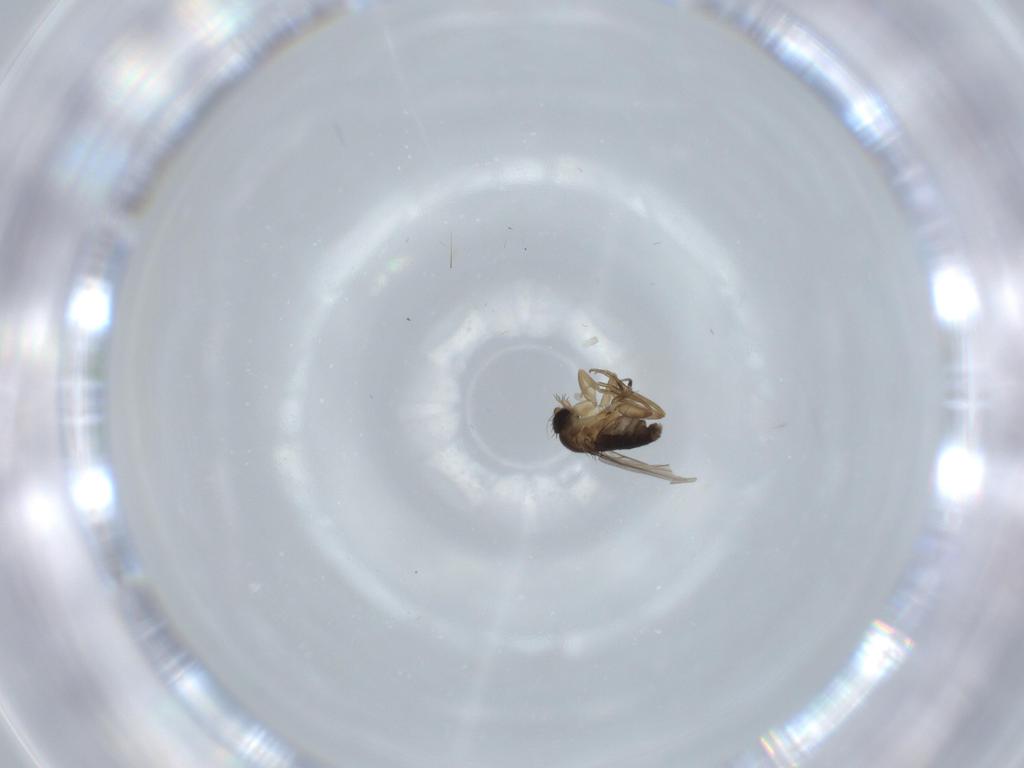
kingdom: Animalia
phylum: Arthropoda
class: Insecta
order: Diptera
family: Phoridae
